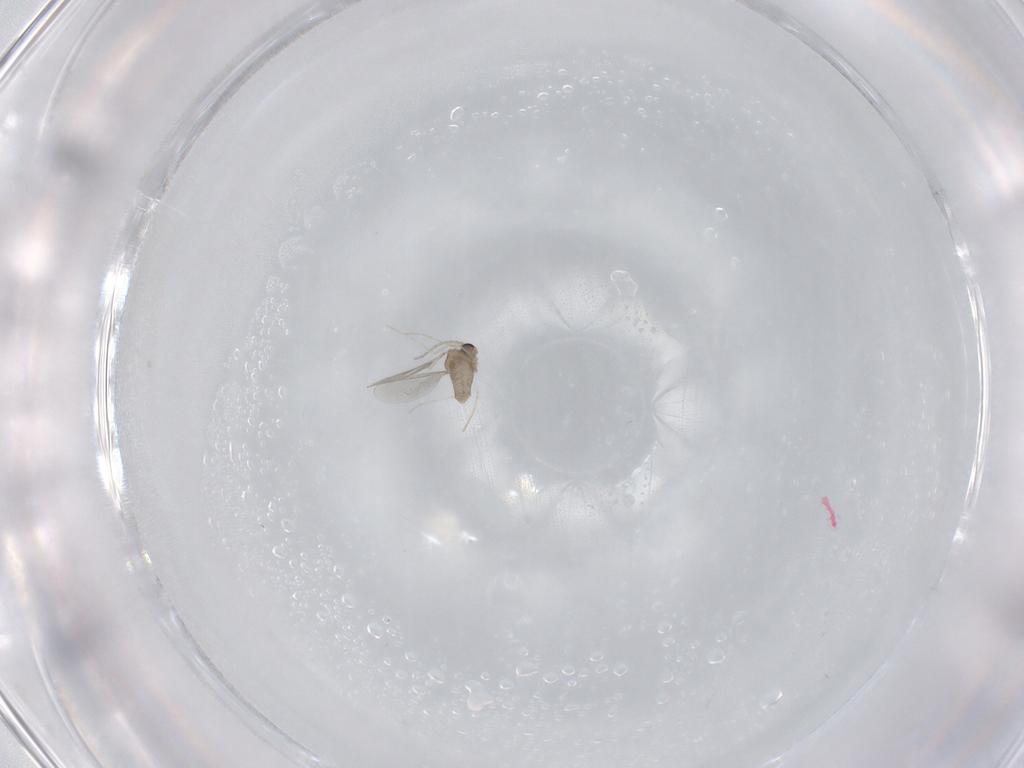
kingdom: Animalia
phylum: Arthropoda
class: Insecta
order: Diptera
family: Cecidomyiidae
